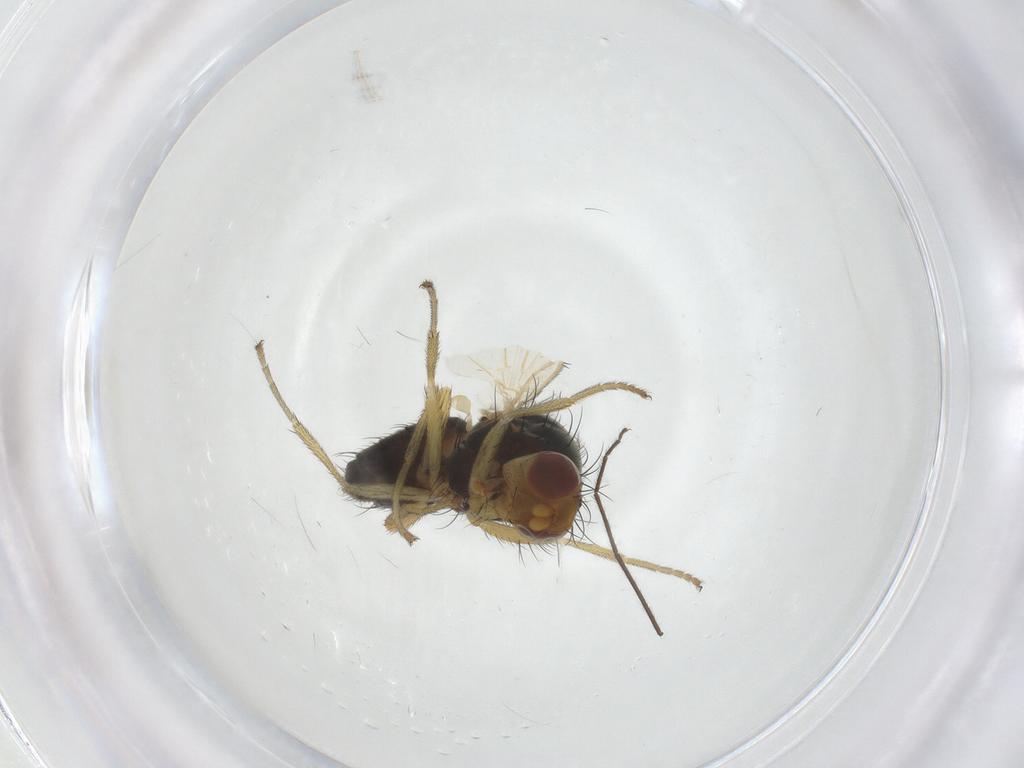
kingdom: Animalia
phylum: Arthropoda
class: Insecta
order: Diptera
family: Heleomyzidae
